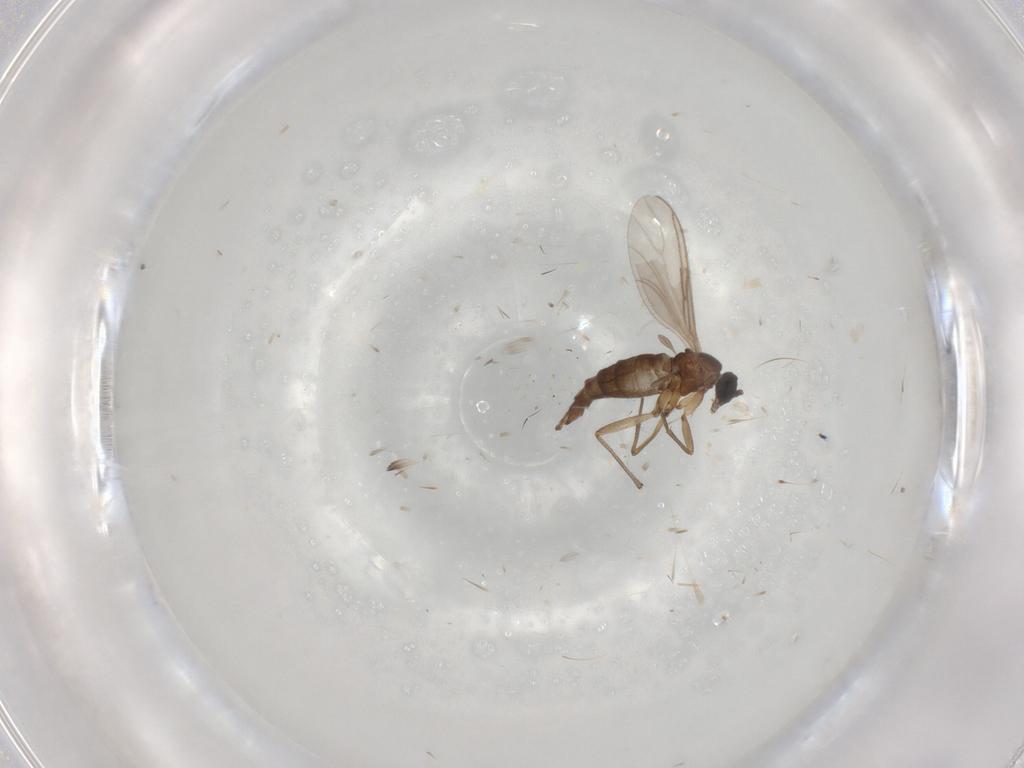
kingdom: Animalia
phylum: Arthropoda
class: Insecta
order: Diptera
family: Sciaridae
